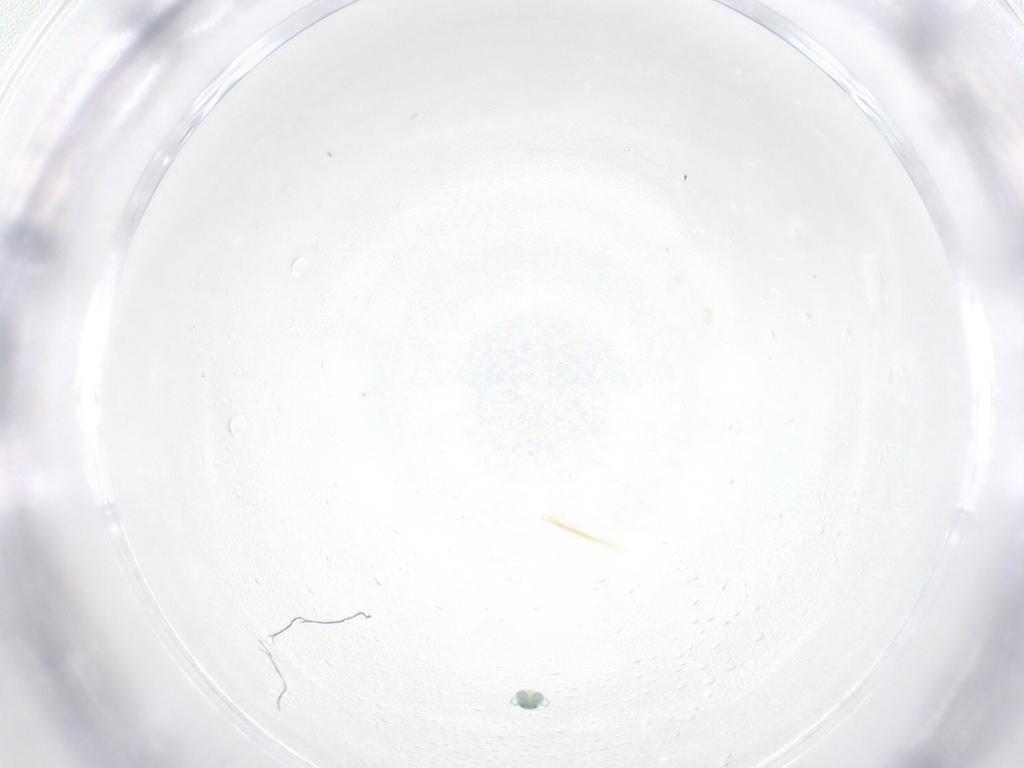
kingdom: Animalia
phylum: Arthropoda
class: Arachnida
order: Trombidiformes
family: Arrenuridae
